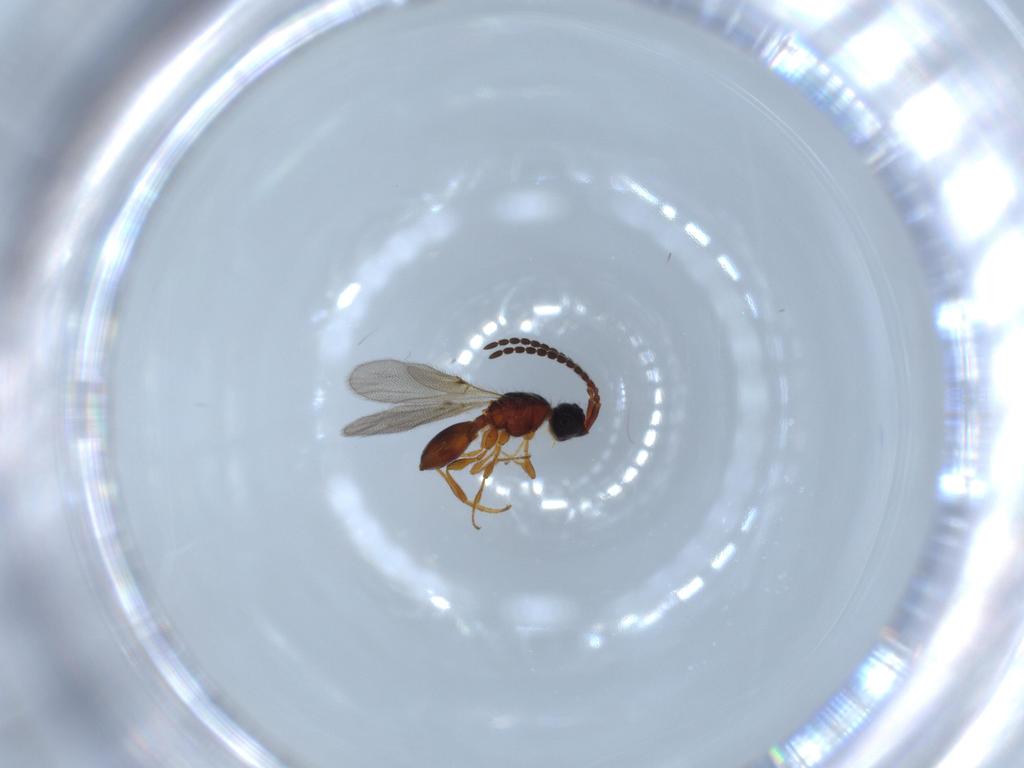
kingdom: Animalia
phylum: Arthropoda
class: Insecta
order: Hymenoptera
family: Diapriidae
